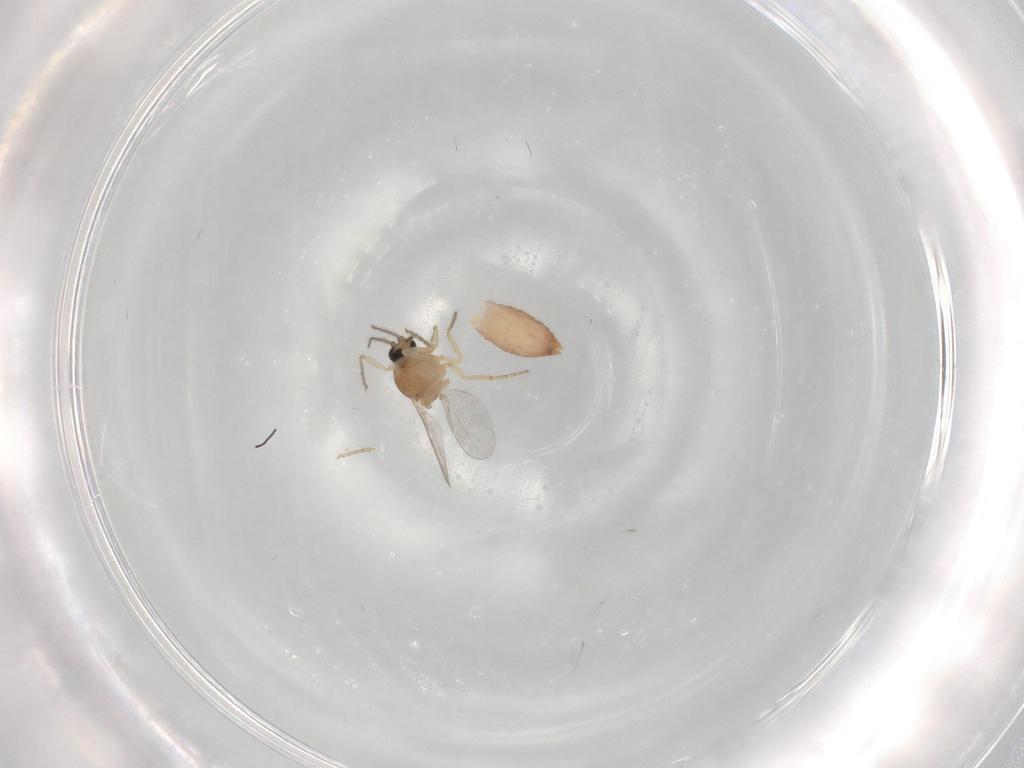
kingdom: Animalia
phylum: Arthropoda
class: Insecta
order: Diptera
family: Ceratopogonidae
